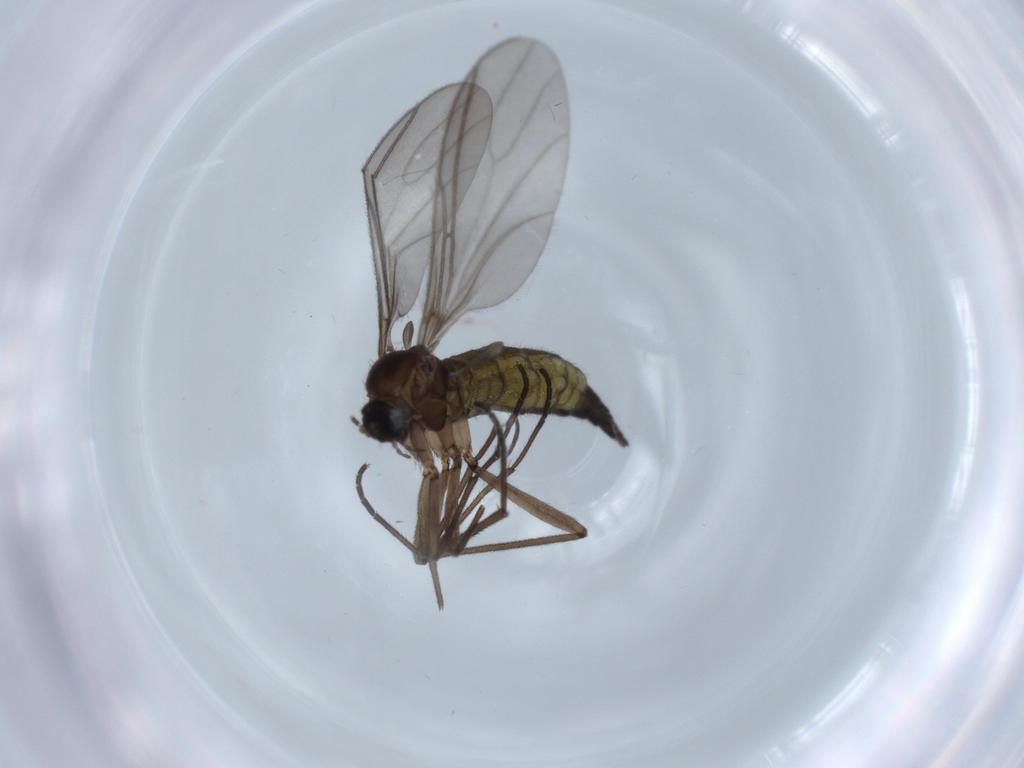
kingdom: Animalia
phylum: Arthropoda
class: Insecta
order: Diptera
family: Sciaridae
